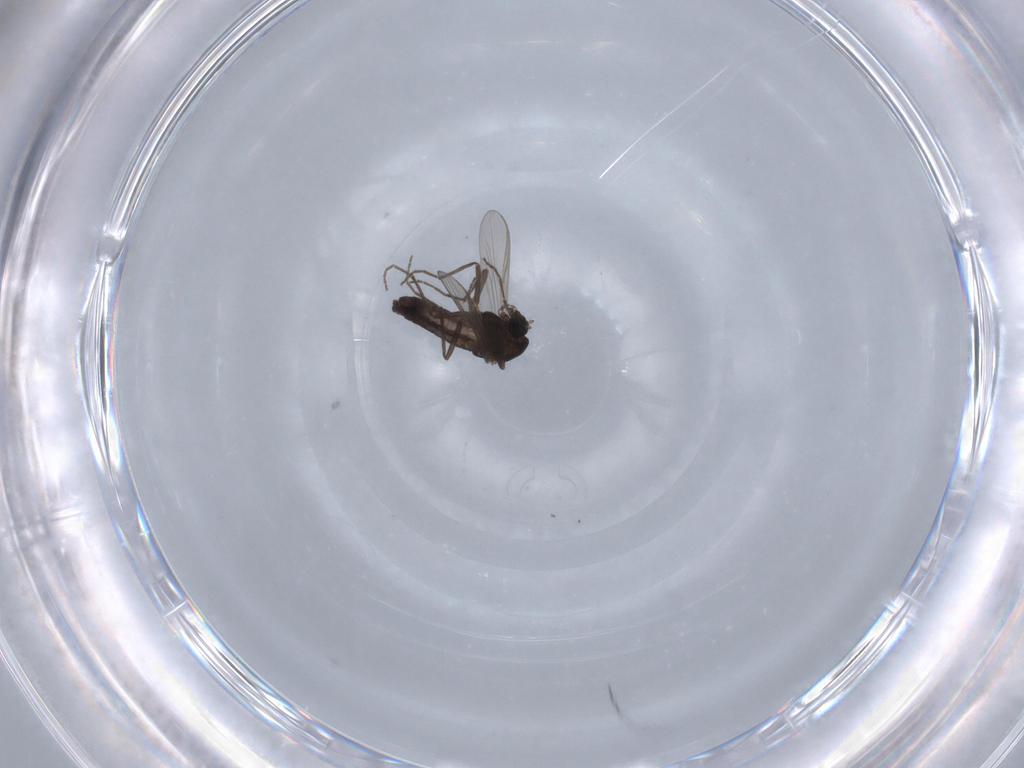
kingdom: Animalia
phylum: Arthropoda
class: Insecta
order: Diptera
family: Chironomidae
